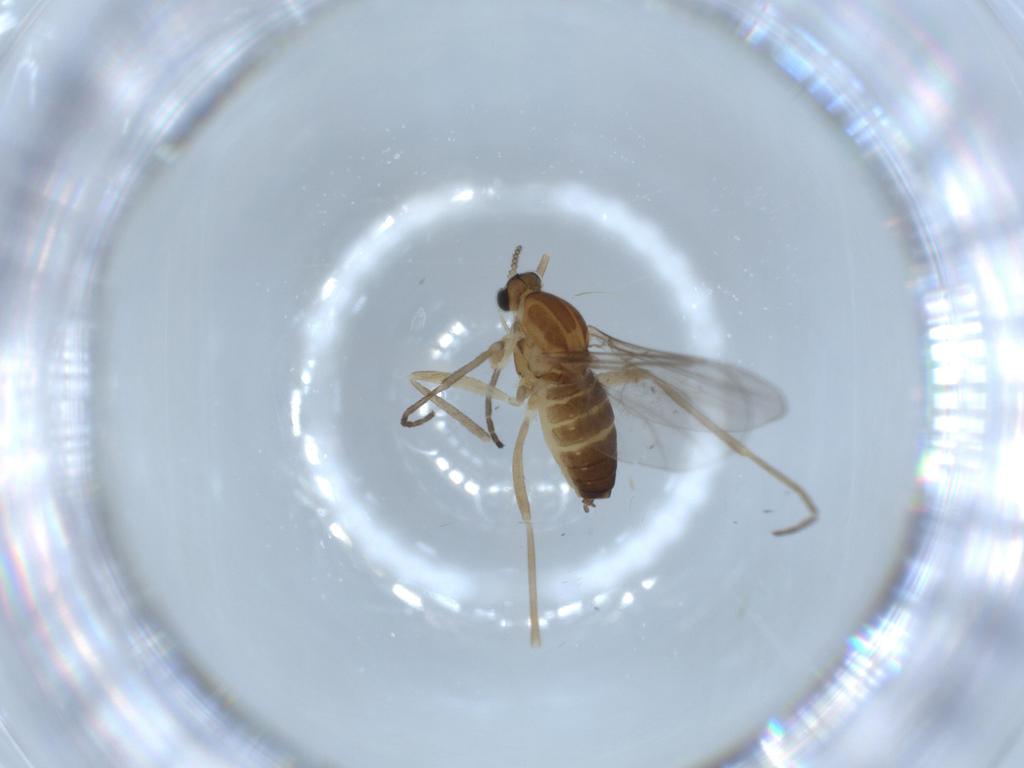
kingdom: Animalia
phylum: Arthropoda
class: Insecta
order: Diptera
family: Cecidomyiidae
